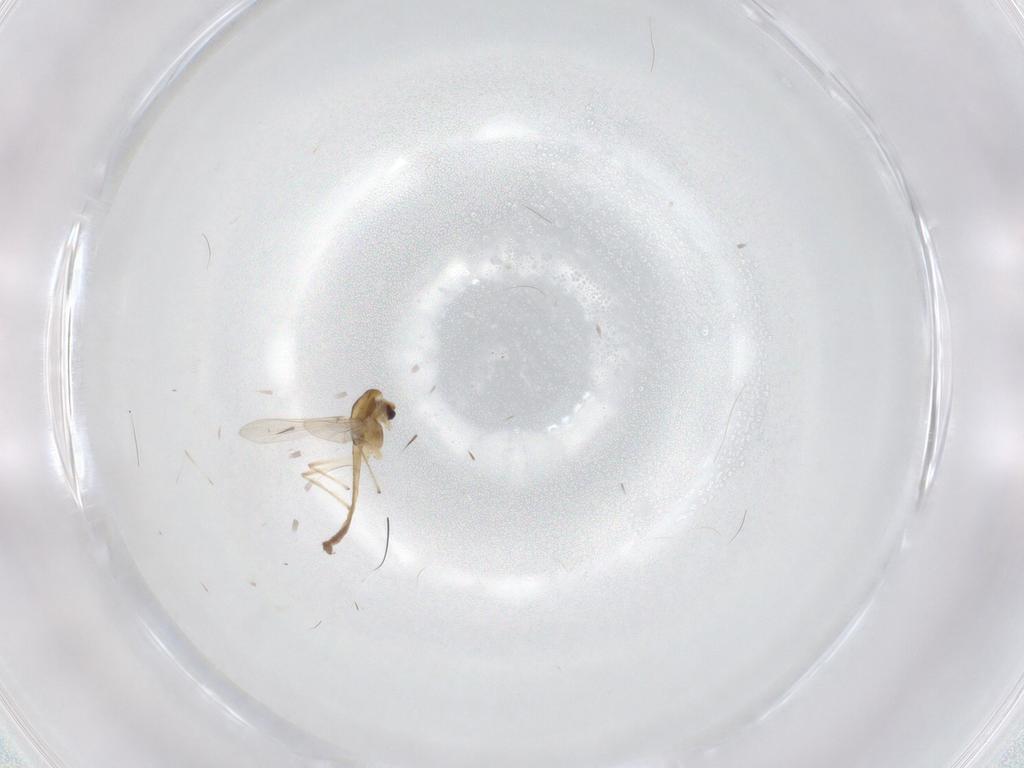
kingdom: Animalia
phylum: Arthropoda
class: Insecta
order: Diptera
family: Chironomidae
